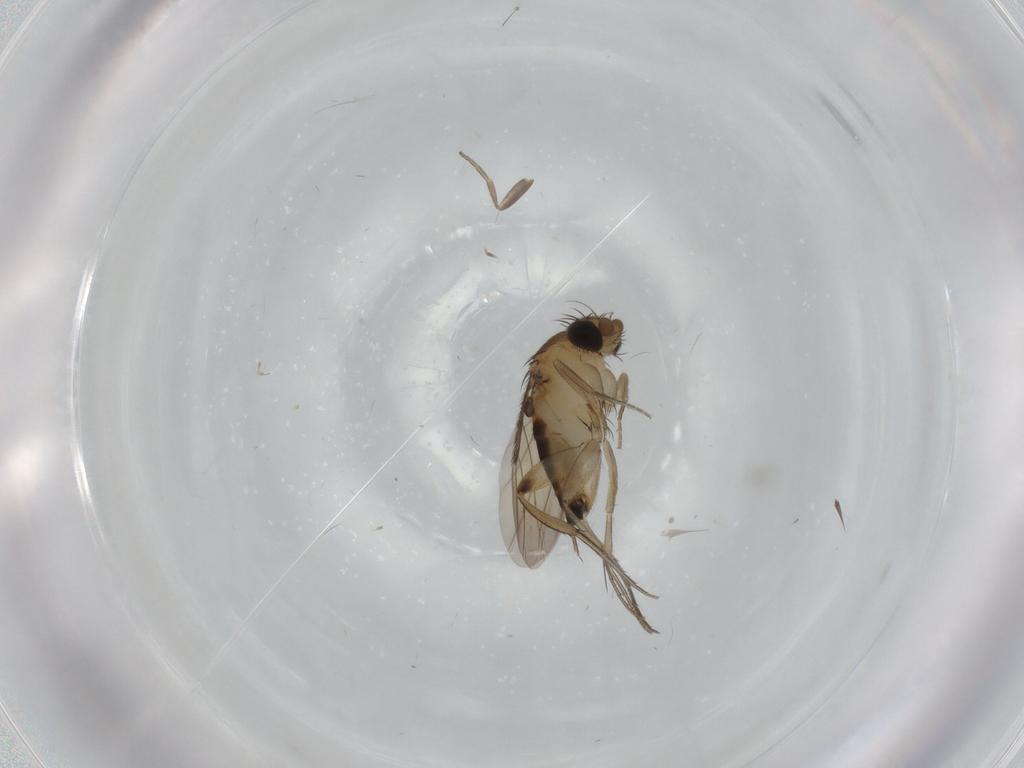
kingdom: Animalia
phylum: Arthropoda
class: Insecta
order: Diptera
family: Phoridae
